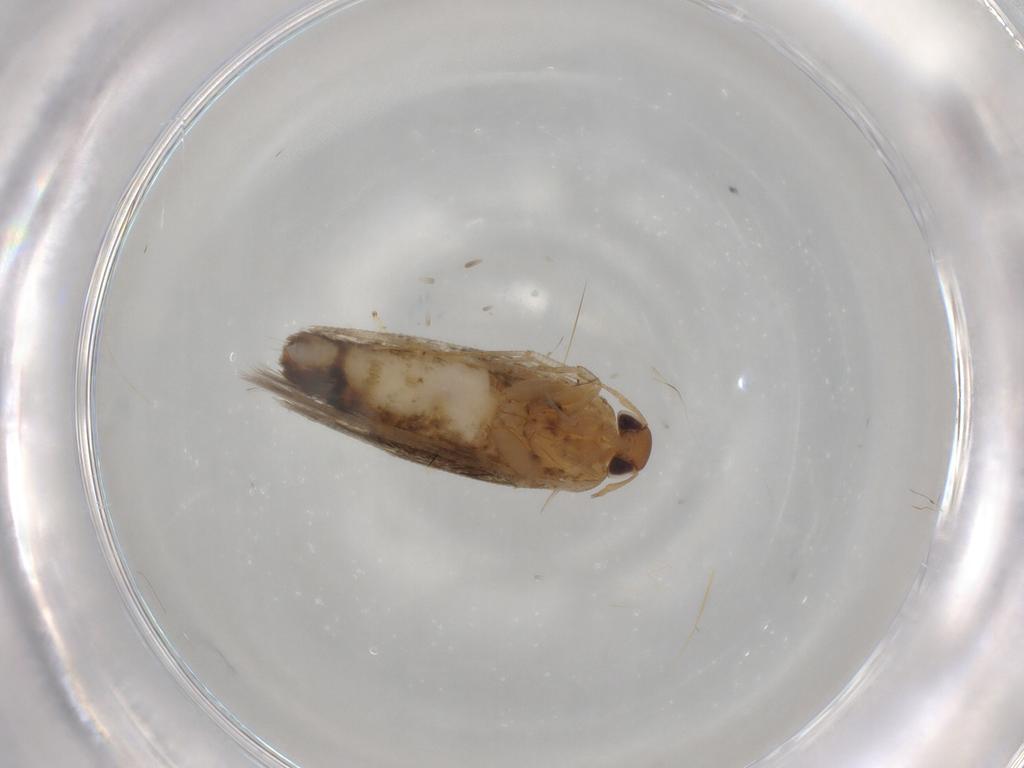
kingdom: Animalia
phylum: Arthropoda
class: Insecta
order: Lepidoptera
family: Cosmopterigidae
